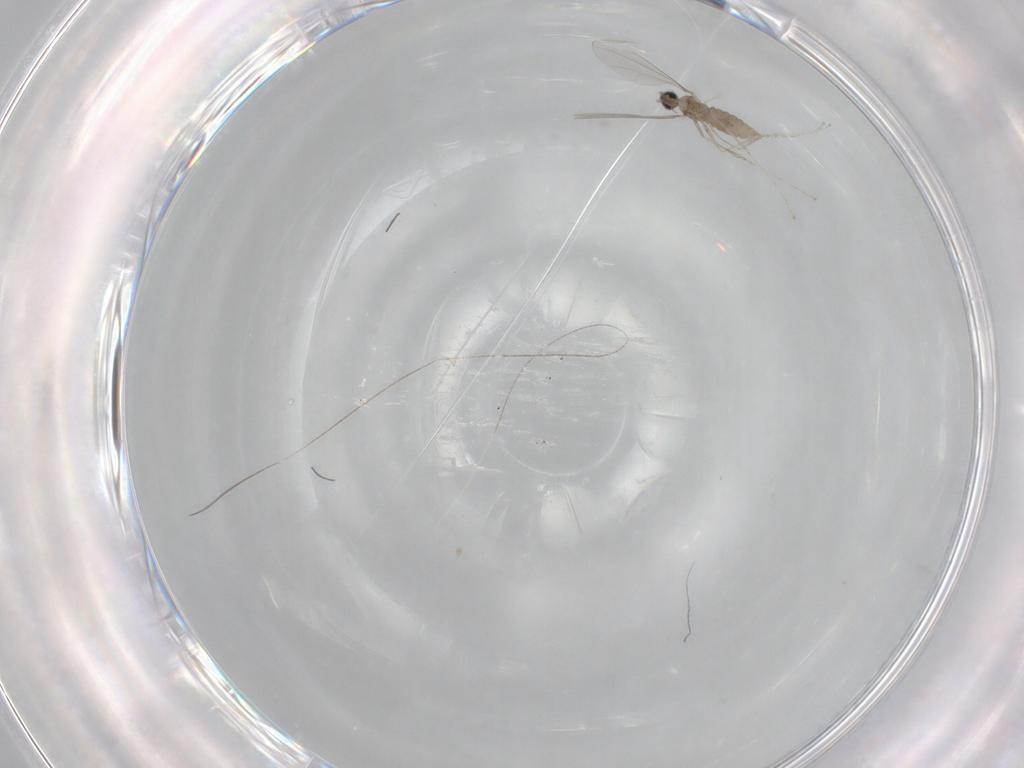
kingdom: Animalia
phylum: Arthropoda
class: Insecta
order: Diptera
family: Cecidomyiidae
